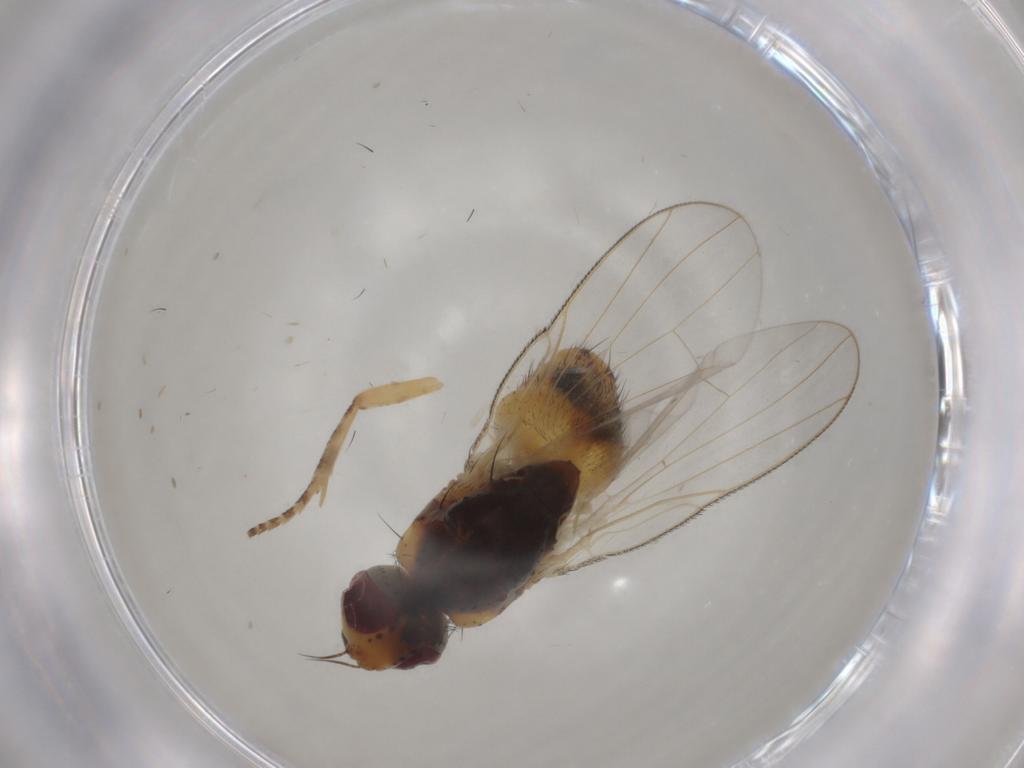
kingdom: Animalia
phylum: Arthropoda
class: Insecta
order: Diptera
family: Muscidae
